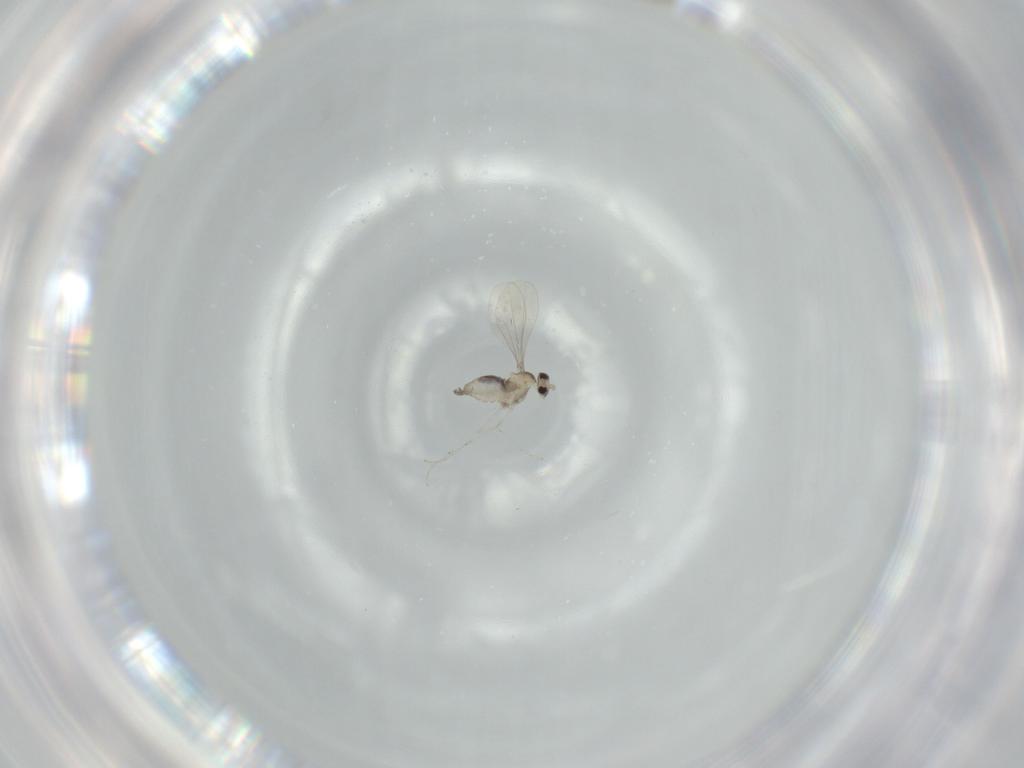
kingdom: Animalia
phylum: Arthropoda
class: Insecta
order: Diptera
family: Cecidomyiidae
